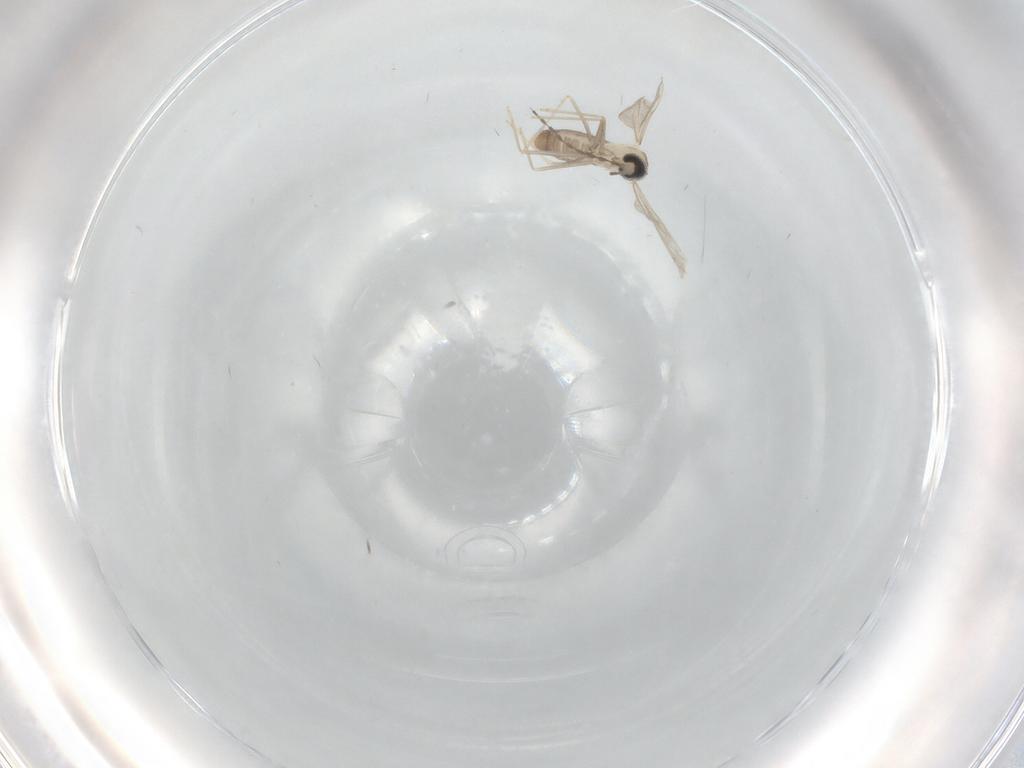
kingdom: Animalia
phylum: Arthropoda
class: Insecta
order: Diptera
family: Cecidomyiidae
